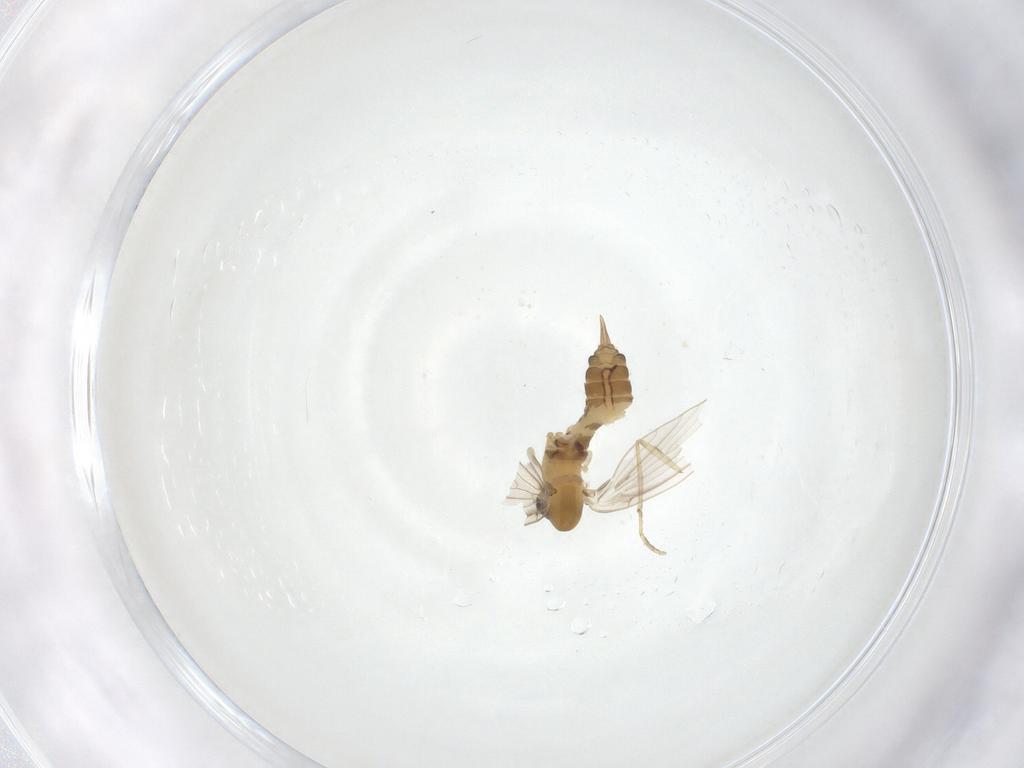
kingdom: Animalia
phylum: Arthropoda
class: Insecta
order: Diptera
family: Psychodidae
